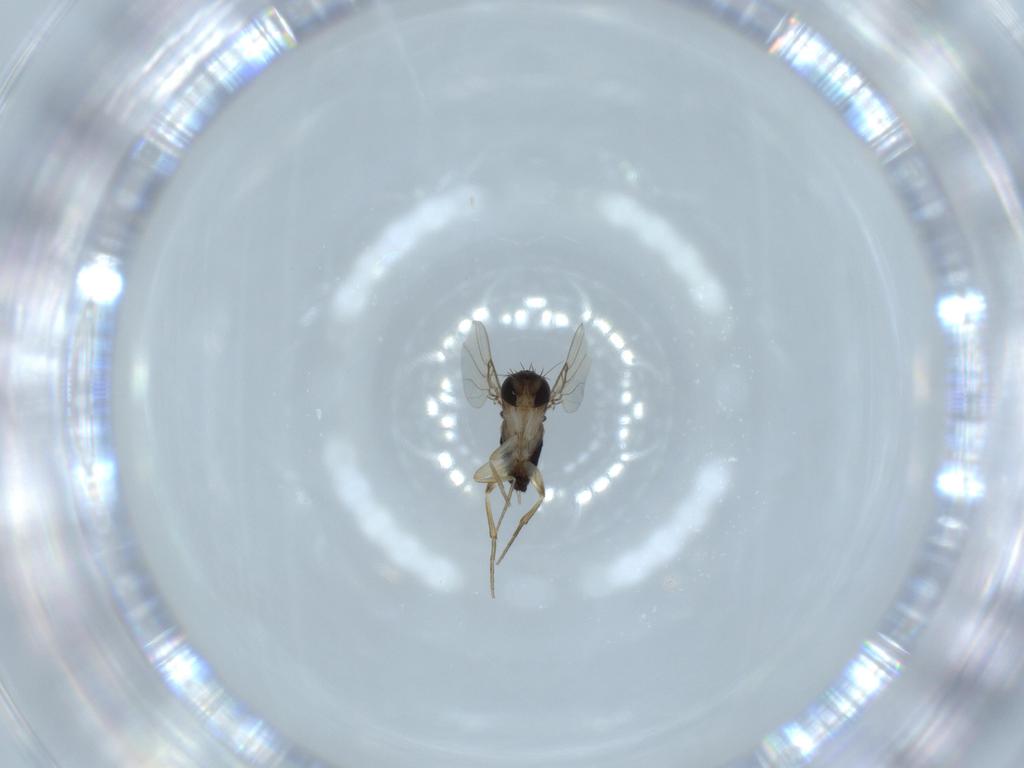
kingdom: Animalia
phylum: Arthropoda
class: Insecta
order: Diptera
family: Phoridae
